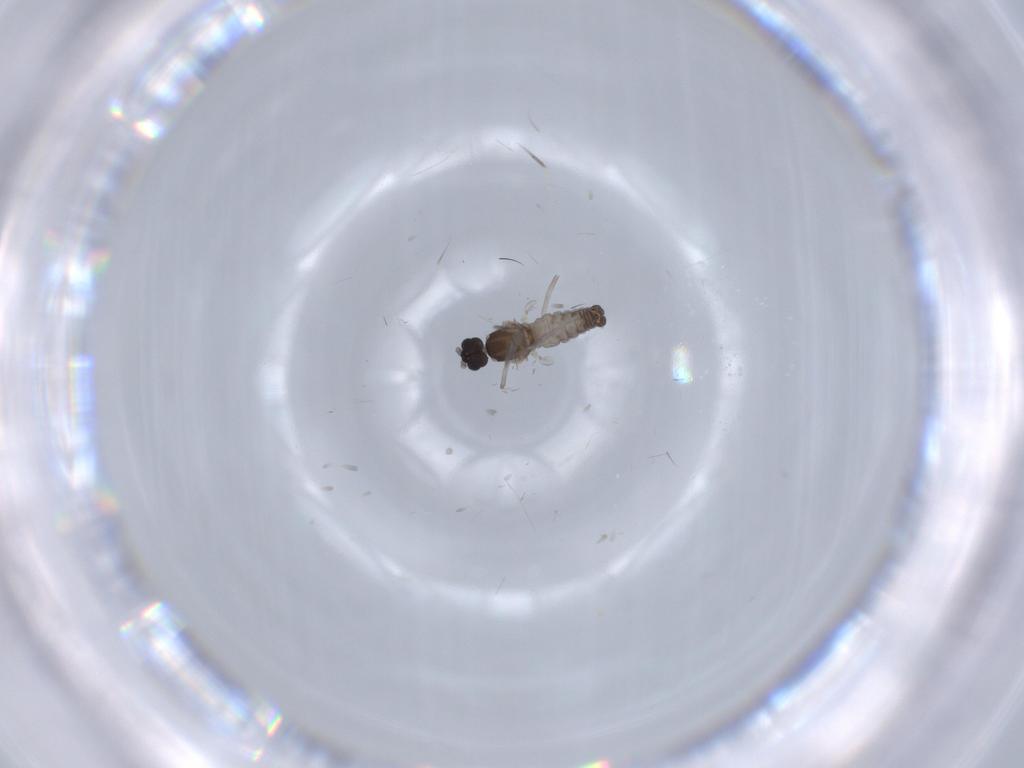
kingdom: Animalia
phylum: Arthropoda
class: Insecta
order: Diptera
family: Cecidomyiidae
